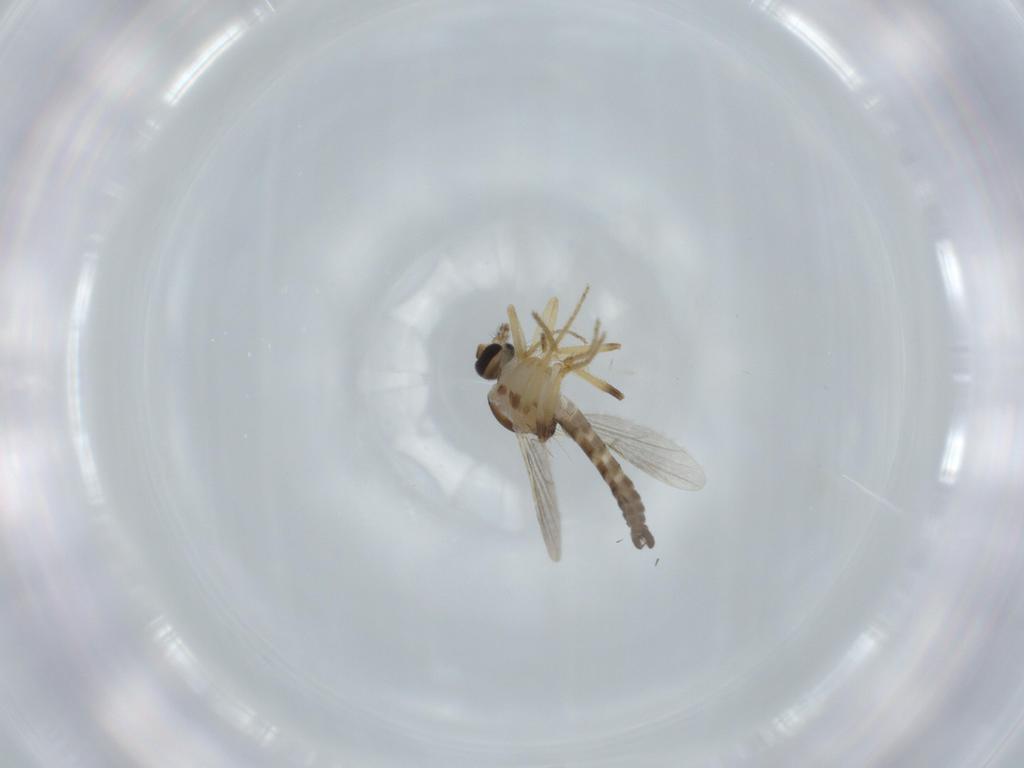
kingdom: Animalia
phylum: Arthropoda
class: Insecta
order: Diptera
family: Ceratopogonidae
